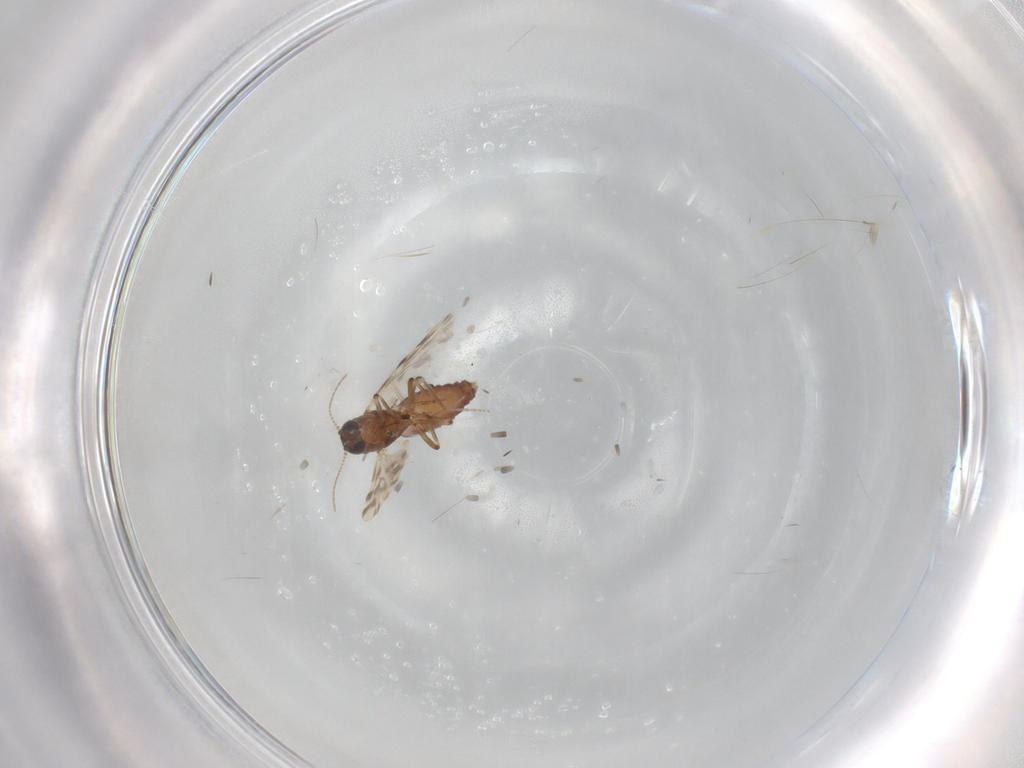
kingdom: Animalia
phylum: Arthropoda
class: Insecta
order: Diptera
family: Ceratopogonidae
